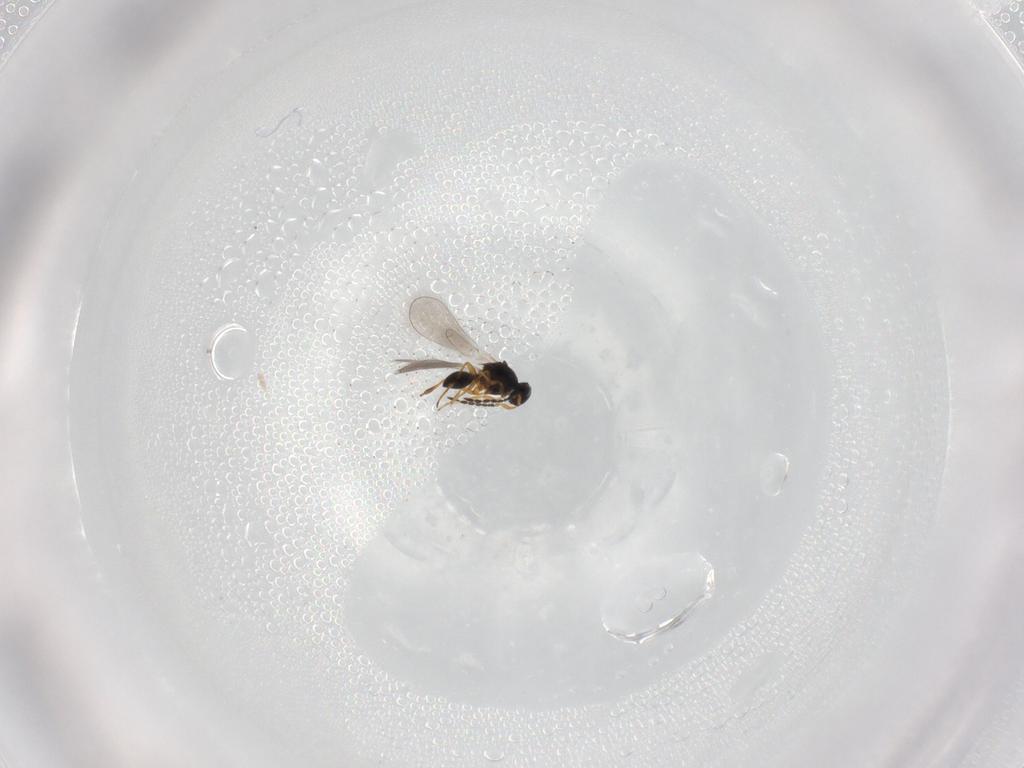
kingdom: Animalia
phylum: Arthropoda
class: Insecta
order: Hymenoptera
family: Platygastridae
